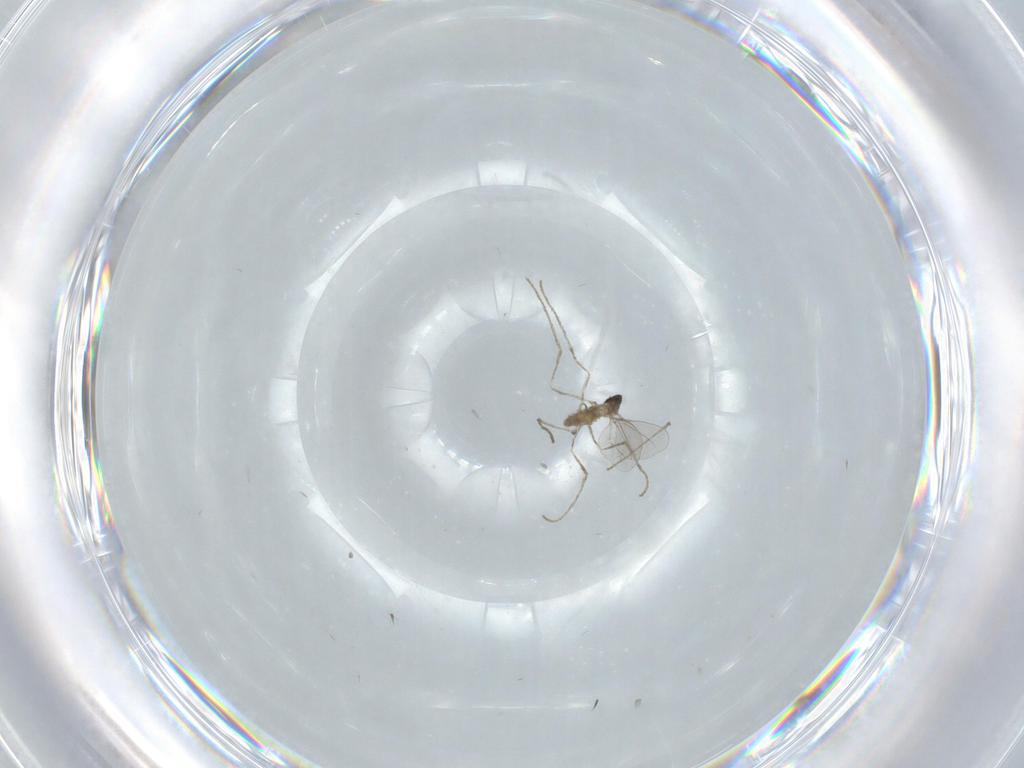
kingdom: Animalia
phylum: Arthropoda
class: Insecta
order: Diptera
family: Cecidomyiidae
